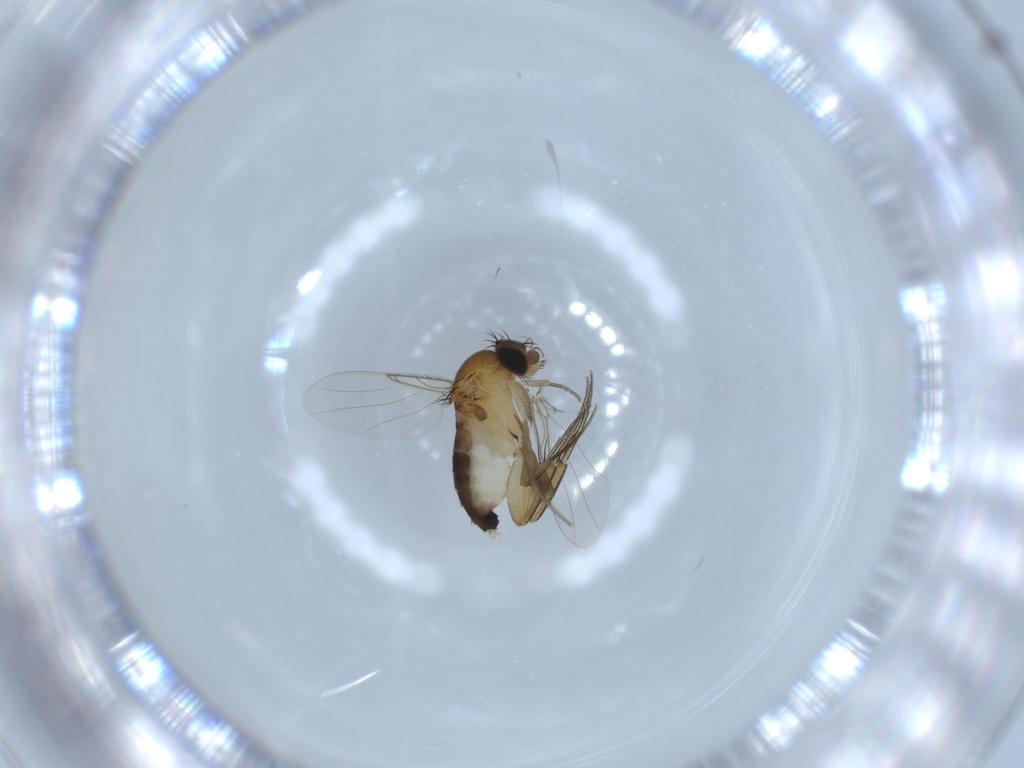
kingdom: Animalia
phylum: Arthropoda
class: Insecta
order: Diptera
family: Phoridae
